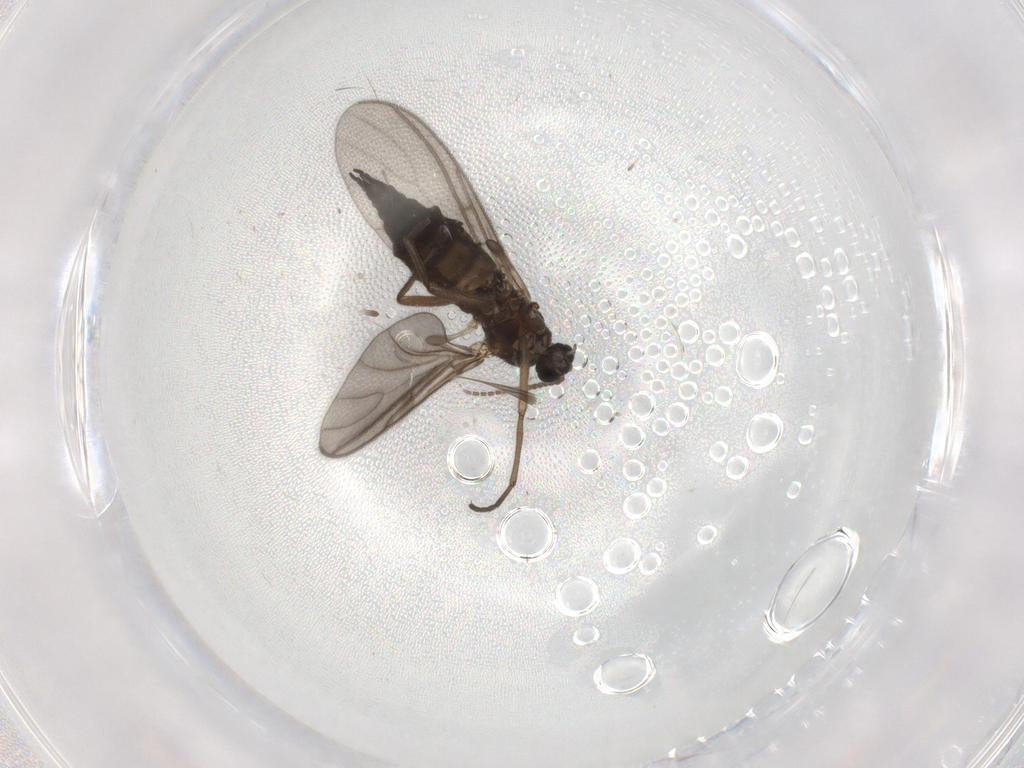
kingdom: Animalia
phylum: Arthropoda
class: Insecta
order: Diptera
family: Sciaridae
